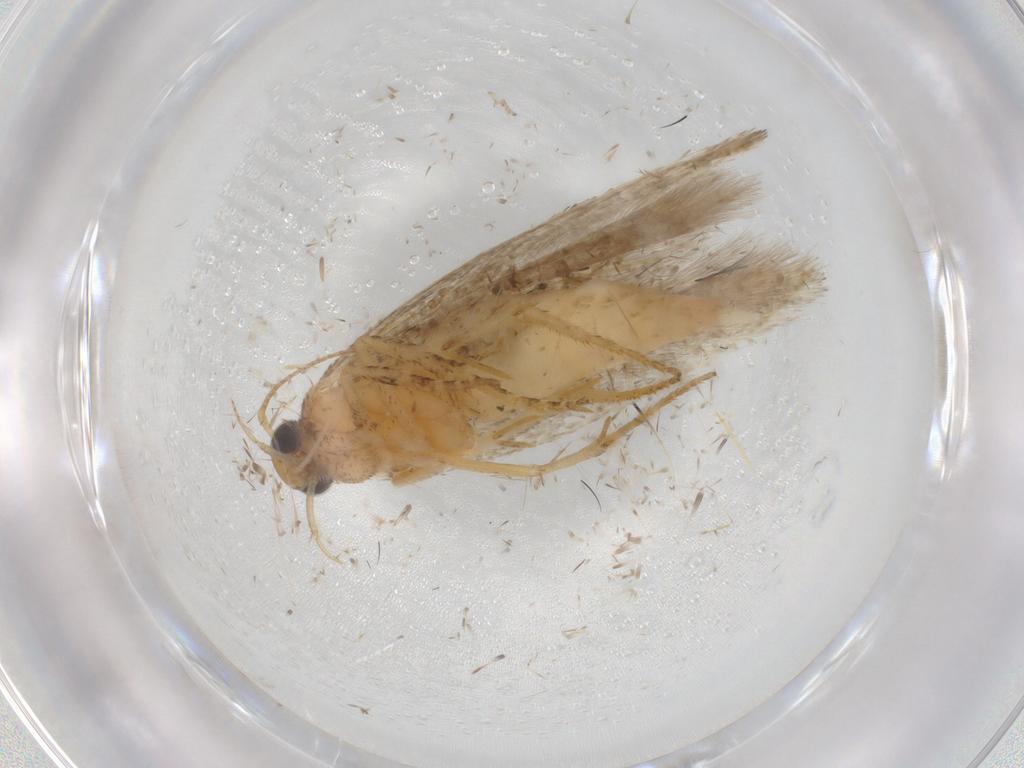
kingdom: Animalia
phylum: Arthropoda
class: Insecta
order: Lepidoptera
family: Gelechiidae
